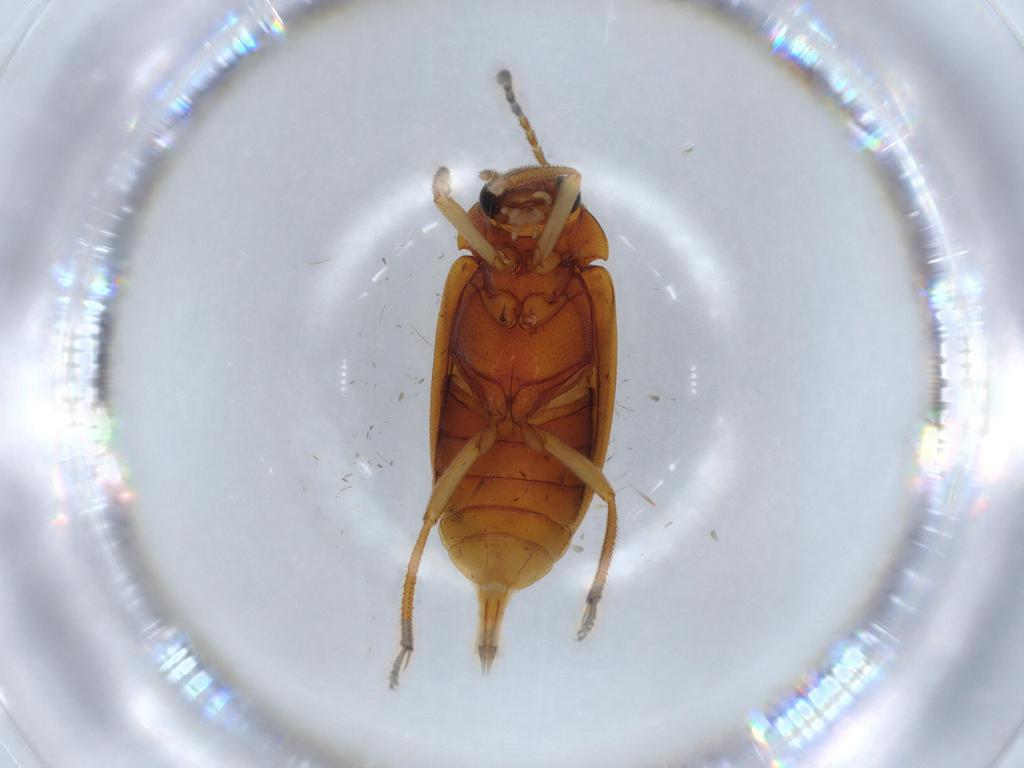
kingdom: Animalia
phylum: Arthropoda
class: Insecta
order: Coleoptera
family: Ptilodactylidae
